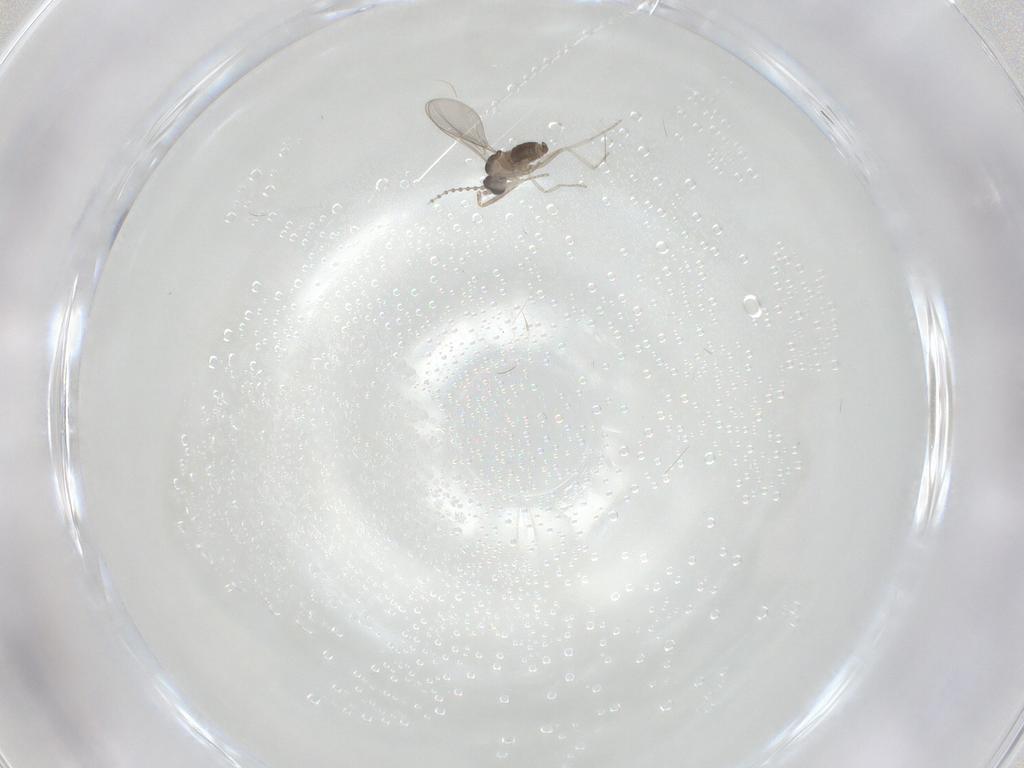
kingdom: Animalia
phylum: Arthropoda
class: Insecta
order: Diptera
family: Cecidomyiidae
